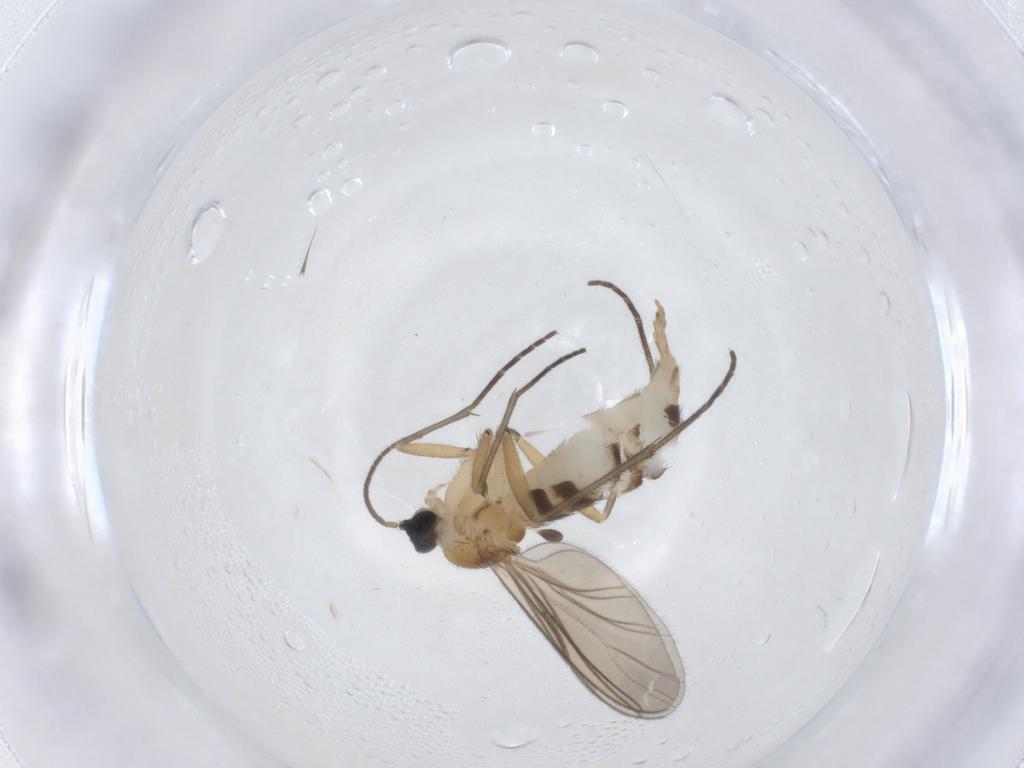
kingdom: Animalia
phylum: Arthropoda
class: Insecta
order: Diptera
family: Sciaridae
